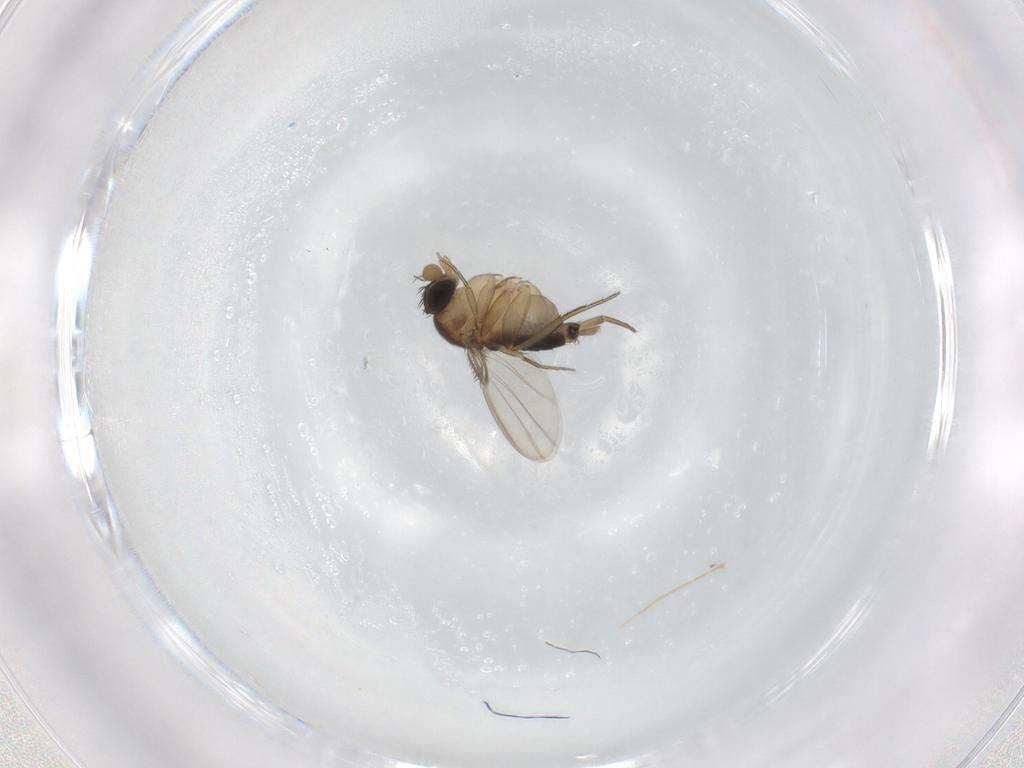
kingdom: Animalia
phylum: Arthropoda
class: Insecta
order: Diptera
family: Phoridae
